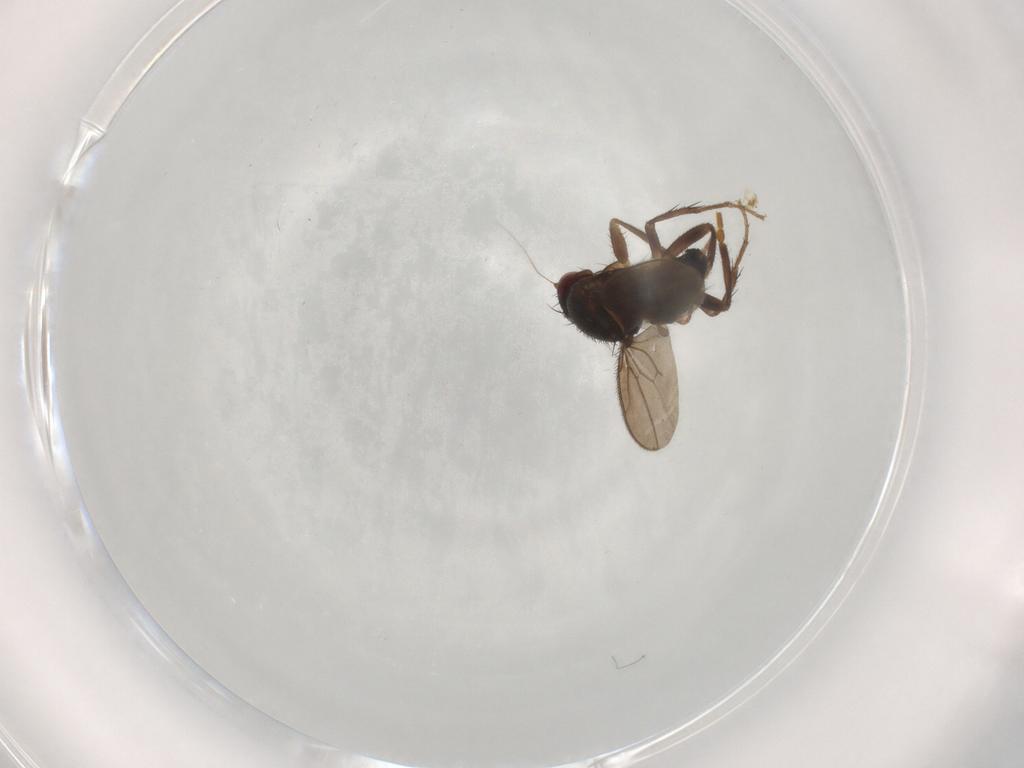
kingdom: Animalia
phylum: Arthropoda
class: Insecta
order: Diptera
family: Sphaeroceridae
